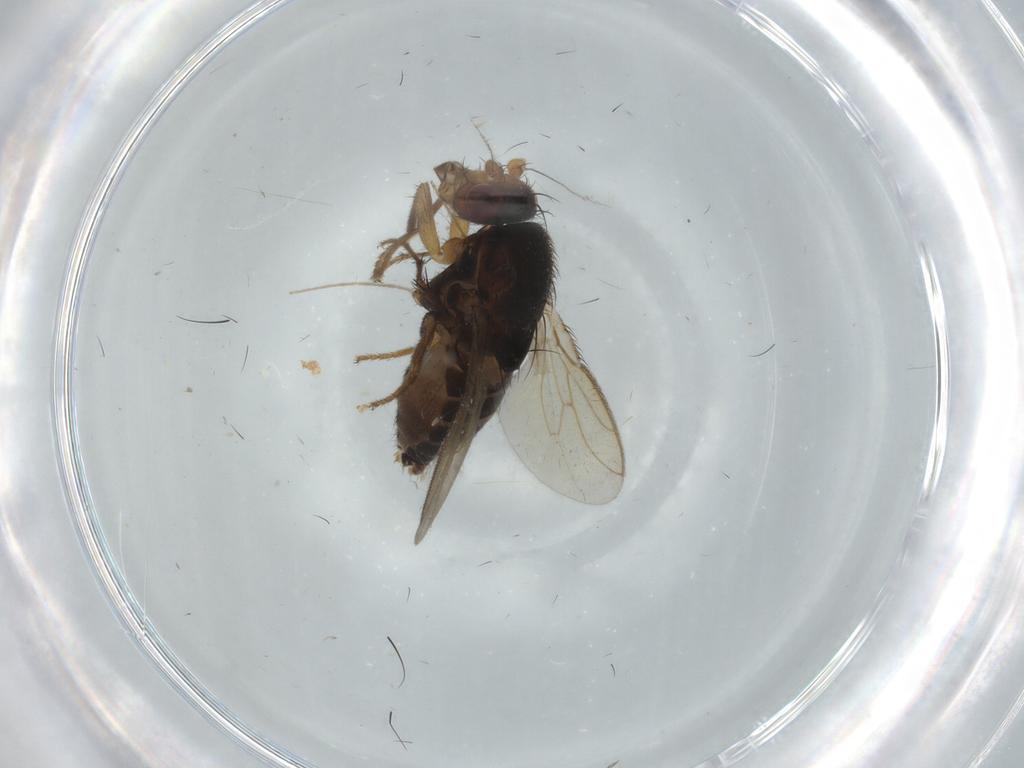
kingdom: Animalia
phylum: Arthropoda
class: Insecta
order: Diptera
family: Sphaeroceridae
